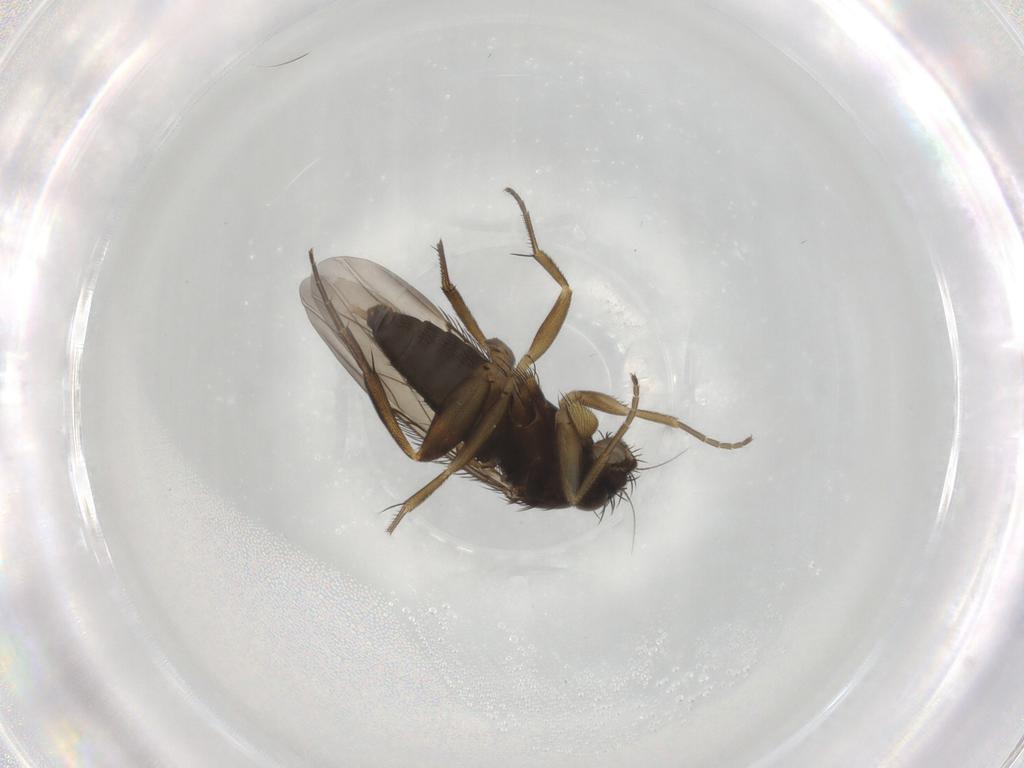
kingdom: Animalia
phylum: Arthropoda
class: Insecta
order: Diptera
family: Phoridae
